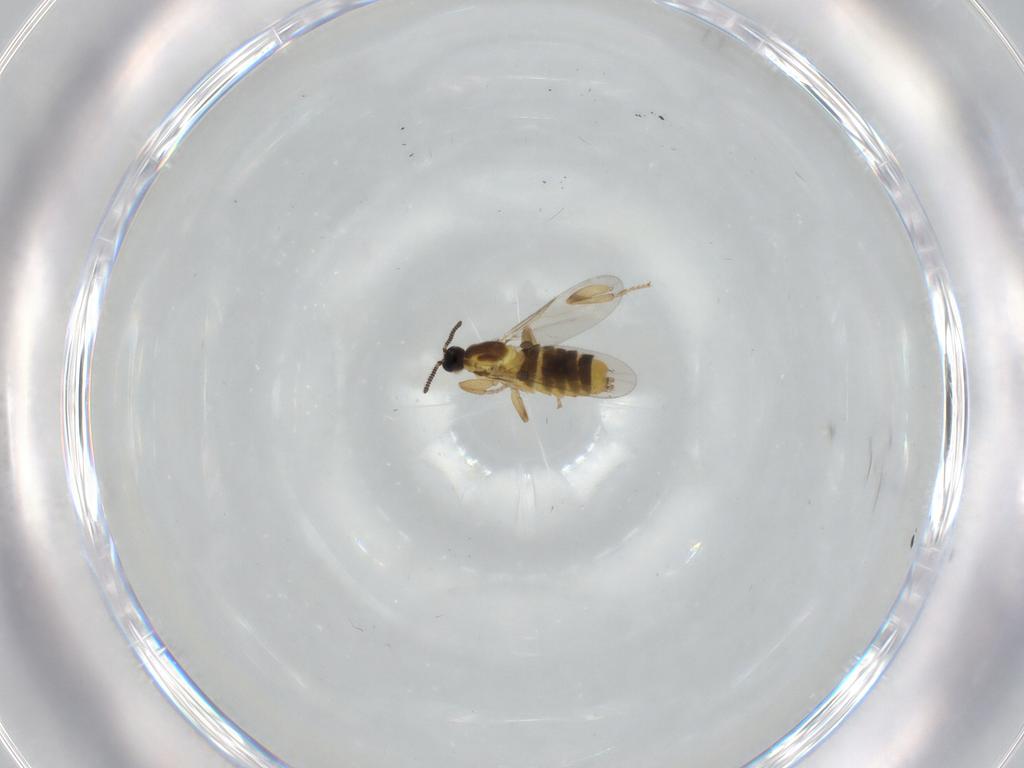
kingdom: Animalia
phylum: Arthropoda
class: Insecta
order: Diptera
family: Scatopsidae
